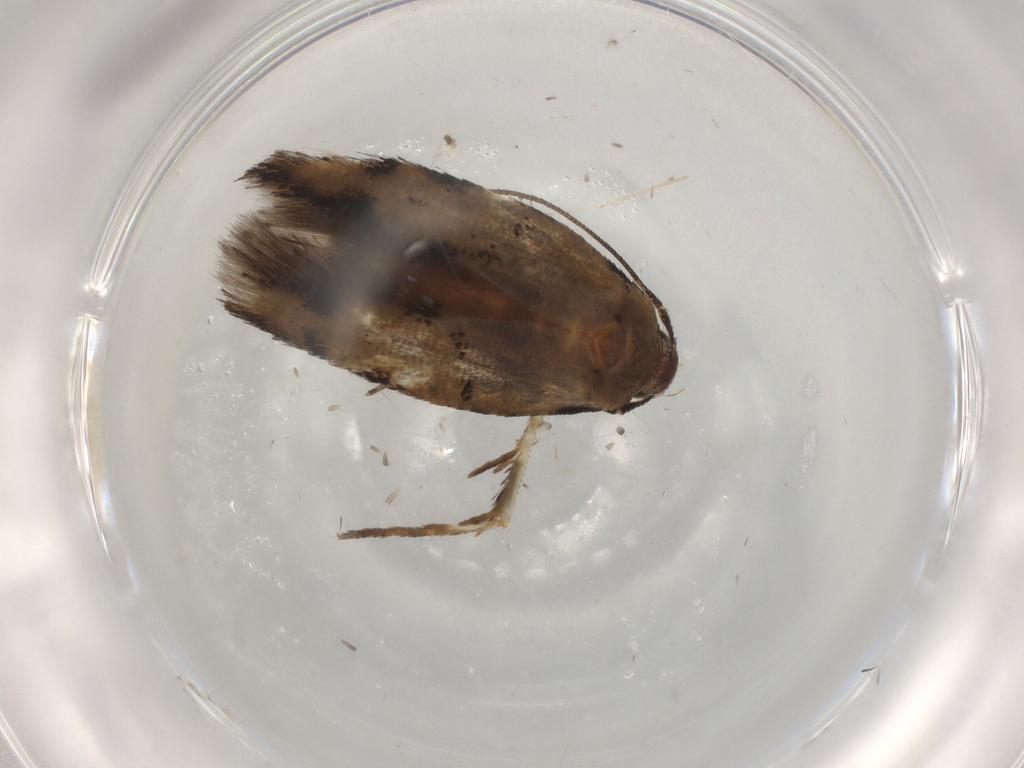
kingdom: Animalia
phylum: Arthropoda
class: Insecta
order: Lepidoptera
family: Cosmopterigidae
